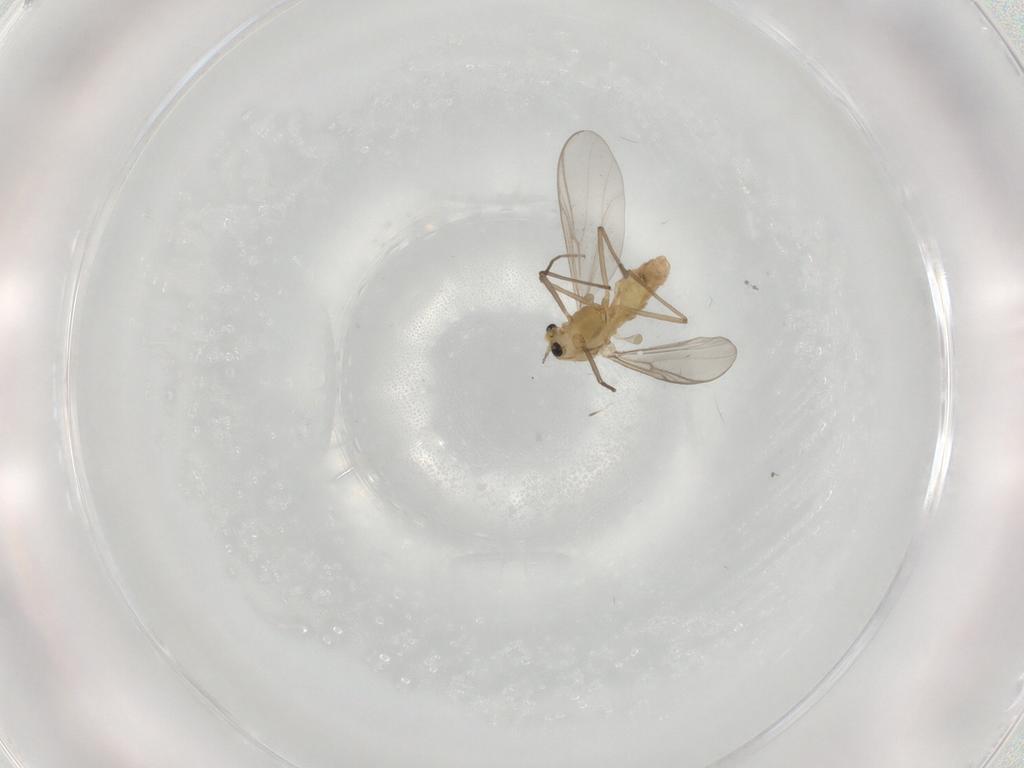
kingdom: Animalia
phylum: Arthropoda
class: Insecta
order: Diptera
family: Chironomidae
